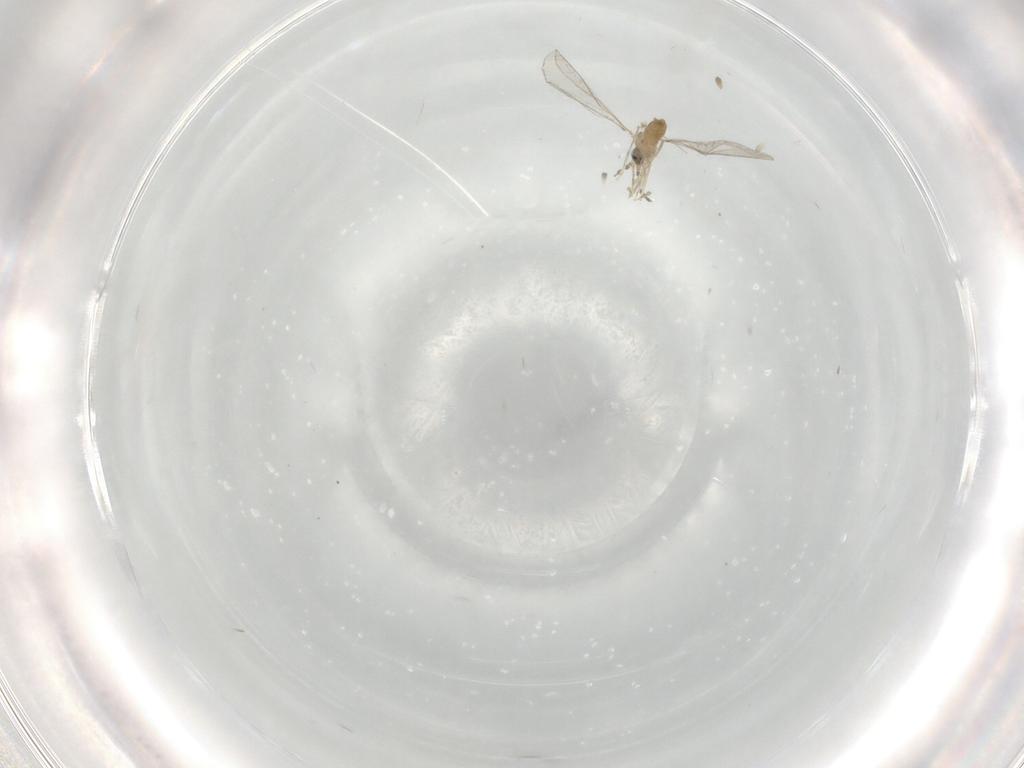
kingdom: Animalia
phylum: Arthropoda
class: Insecta
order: Diptera
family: Cecidomyiidae
